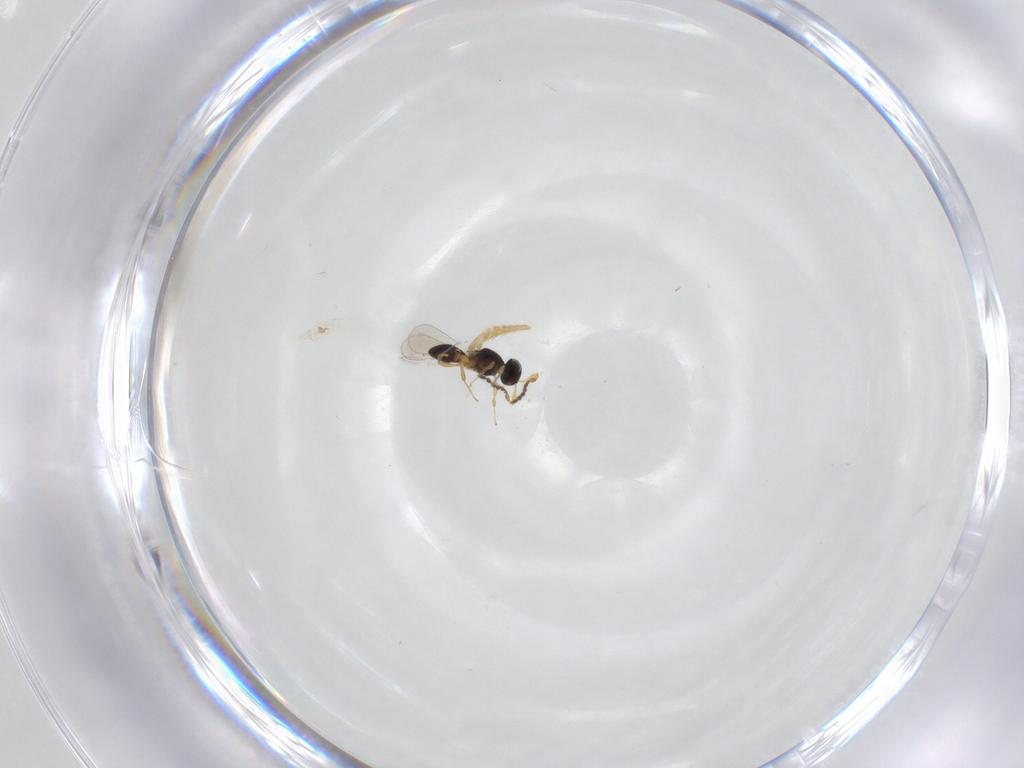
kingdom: Animalia
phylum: Arthropoda
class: Insecta
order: Hymenoptera
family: Platygastridae
